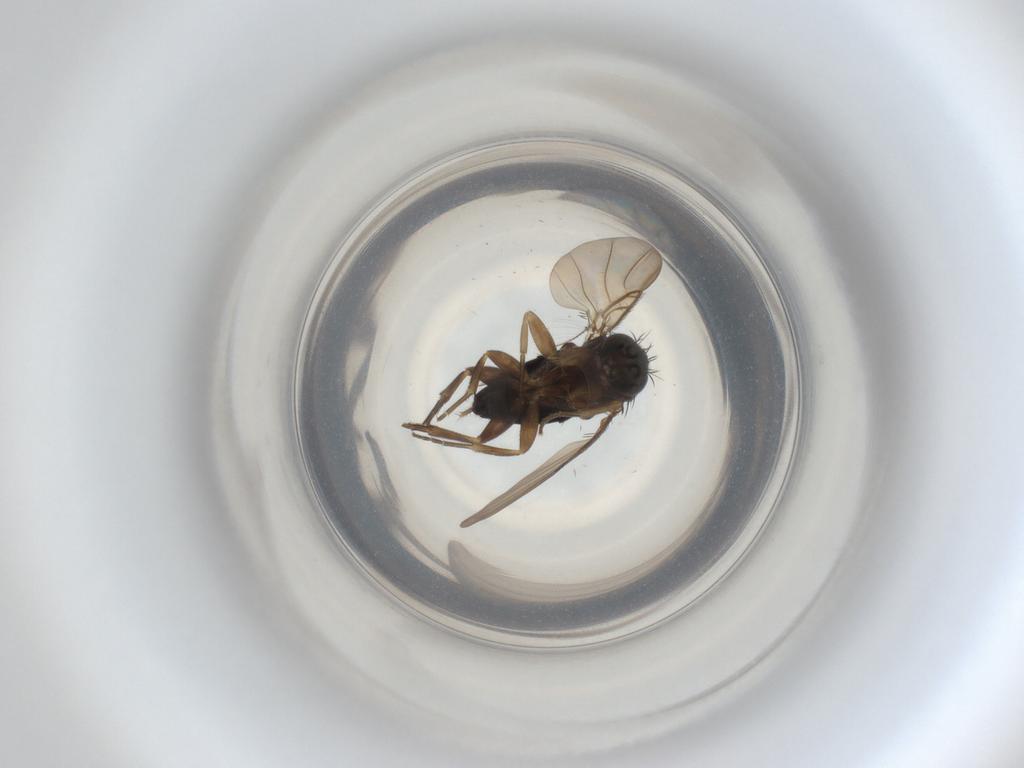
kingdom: Animalia
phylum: Arthropoda
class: Insecta
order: Diptera
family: Phoridae
